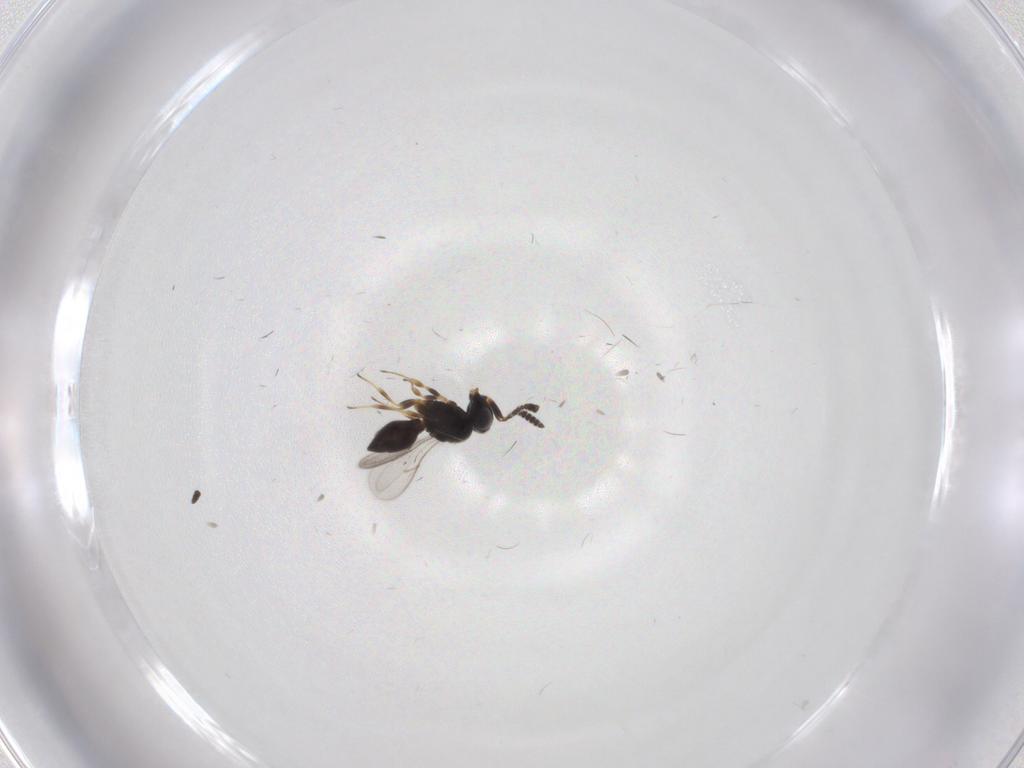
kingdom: Animalia
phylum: Arthropoda
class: Insecta
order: Hymenoptera
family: Scelionidae
